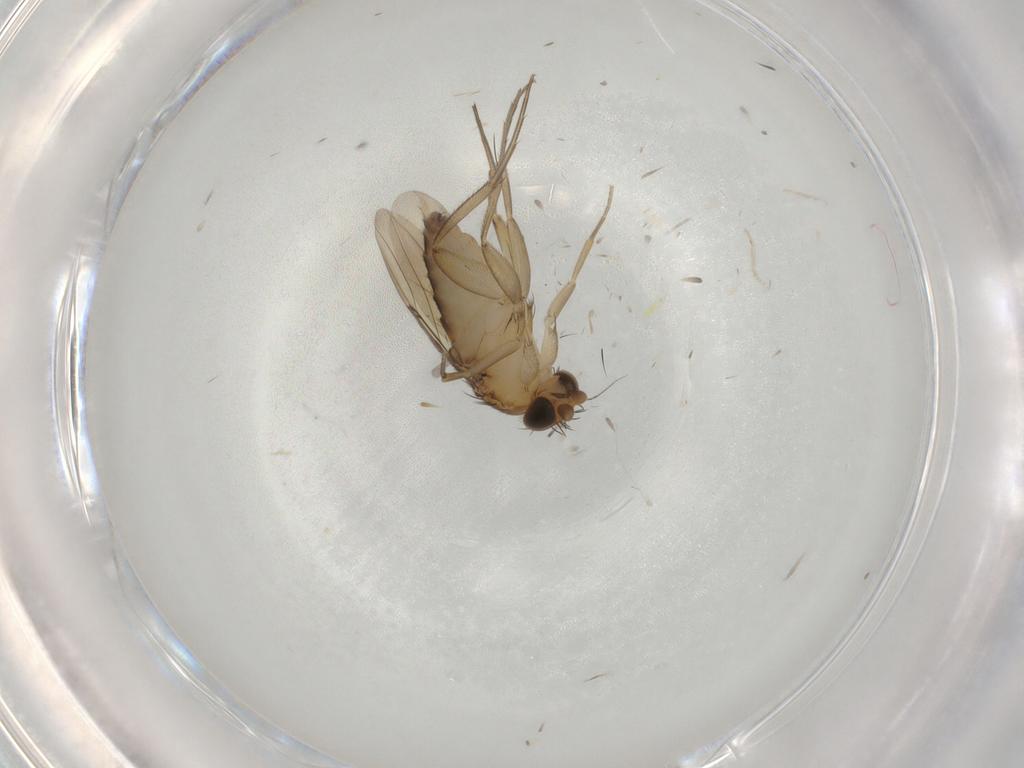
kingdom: Animalia
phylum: Arthropoda
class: Insecta
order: Diptera
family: Phoridae
